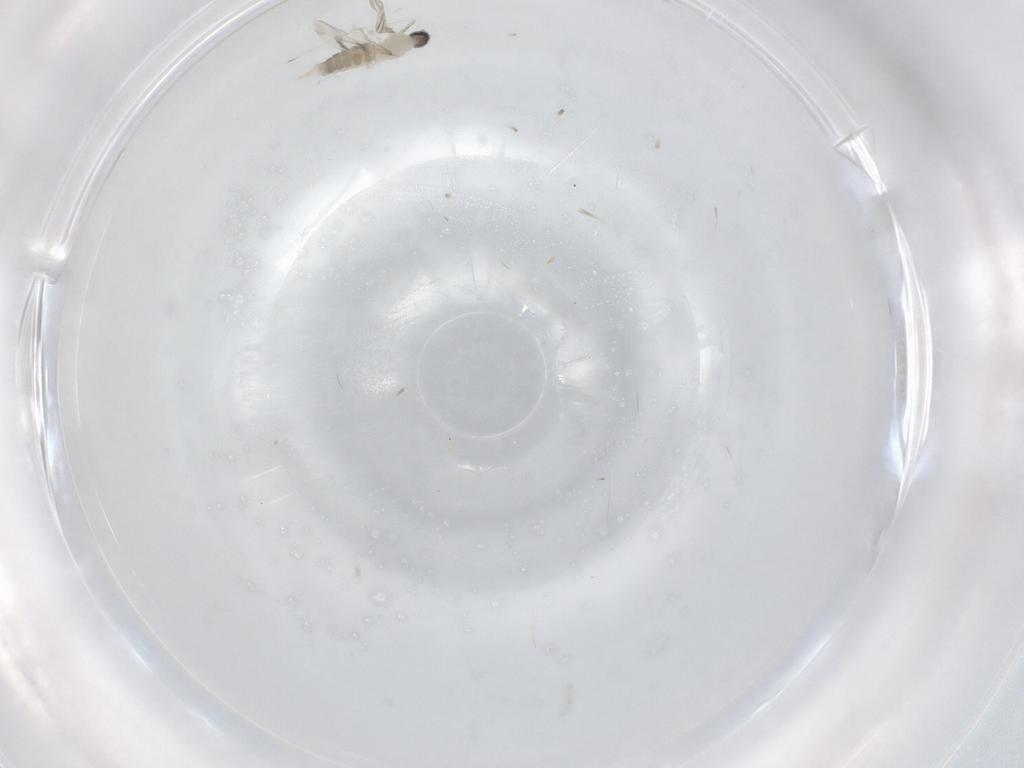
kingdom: Animalia
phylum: Arthropoda
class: Insecta
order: Diptera
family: Cecidomyiidae
